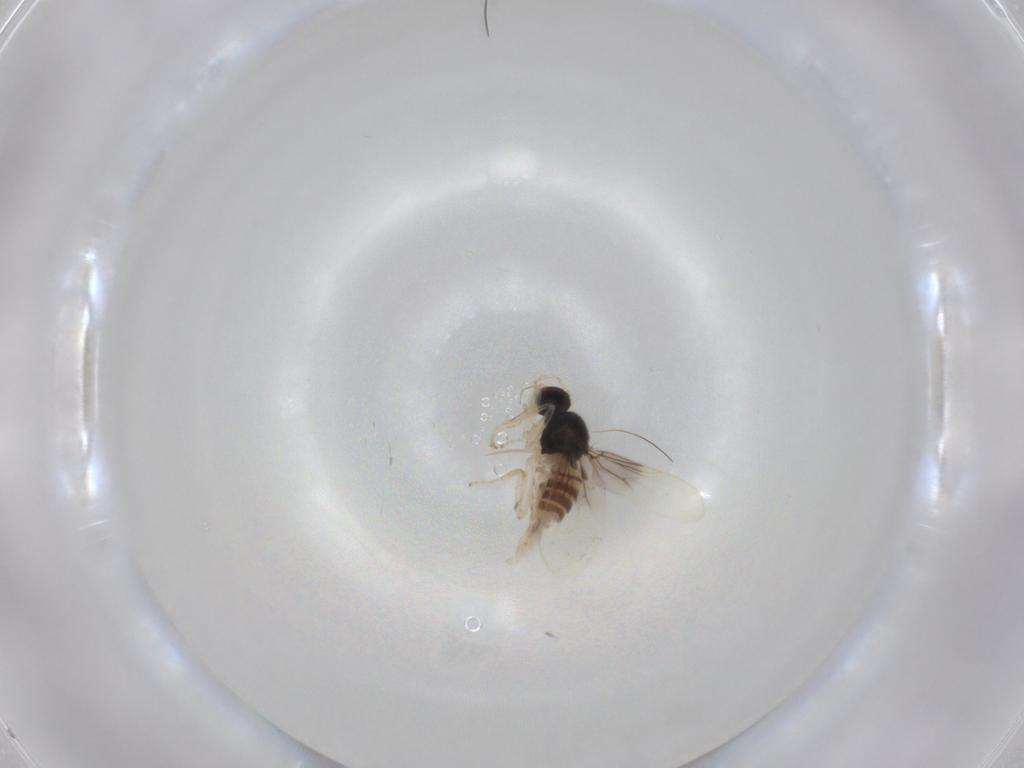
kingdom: Animalia
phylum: Arthropoda
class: Insecta
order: Diptera
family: Hybotidae
